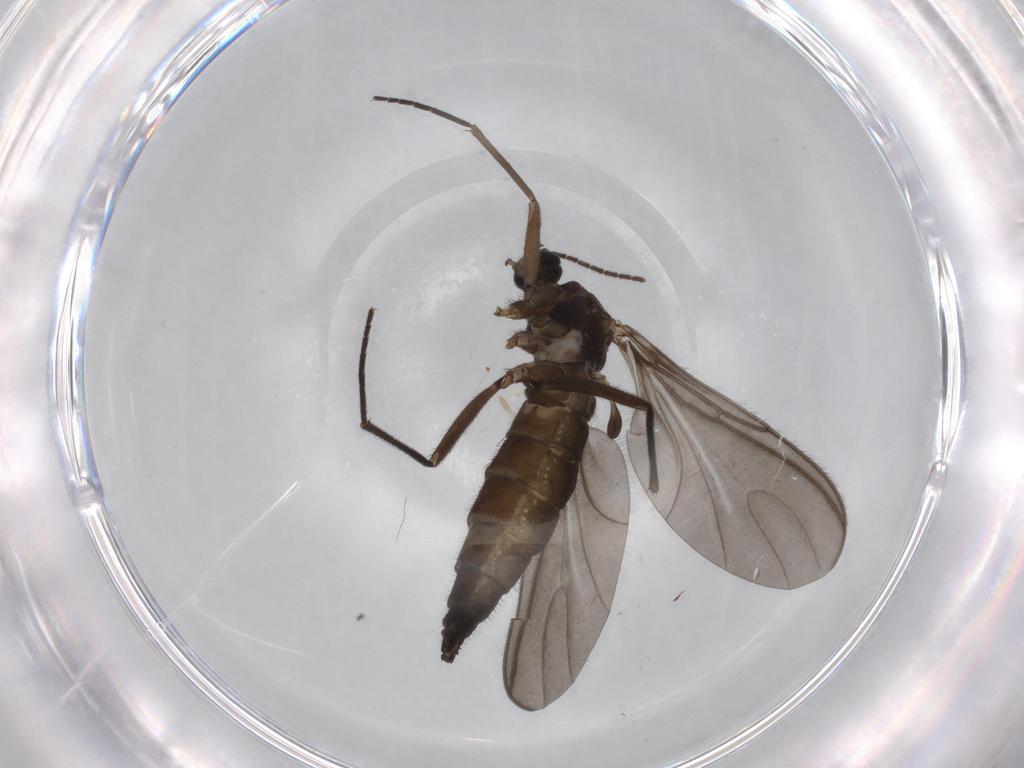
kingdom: Animalia
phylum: Arthropoda
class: Insecta
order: Diptera
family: Sciaridae
